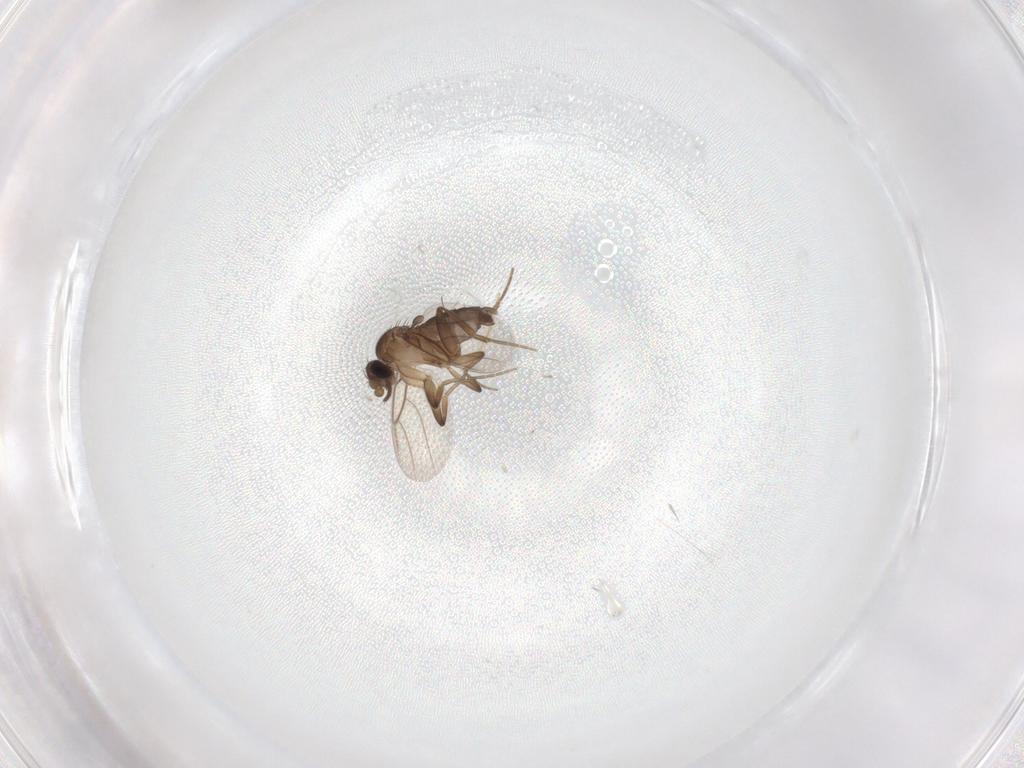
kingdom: Animalia
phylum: Arthropoda
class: Insecta
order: Diptera
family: Chironomidae
